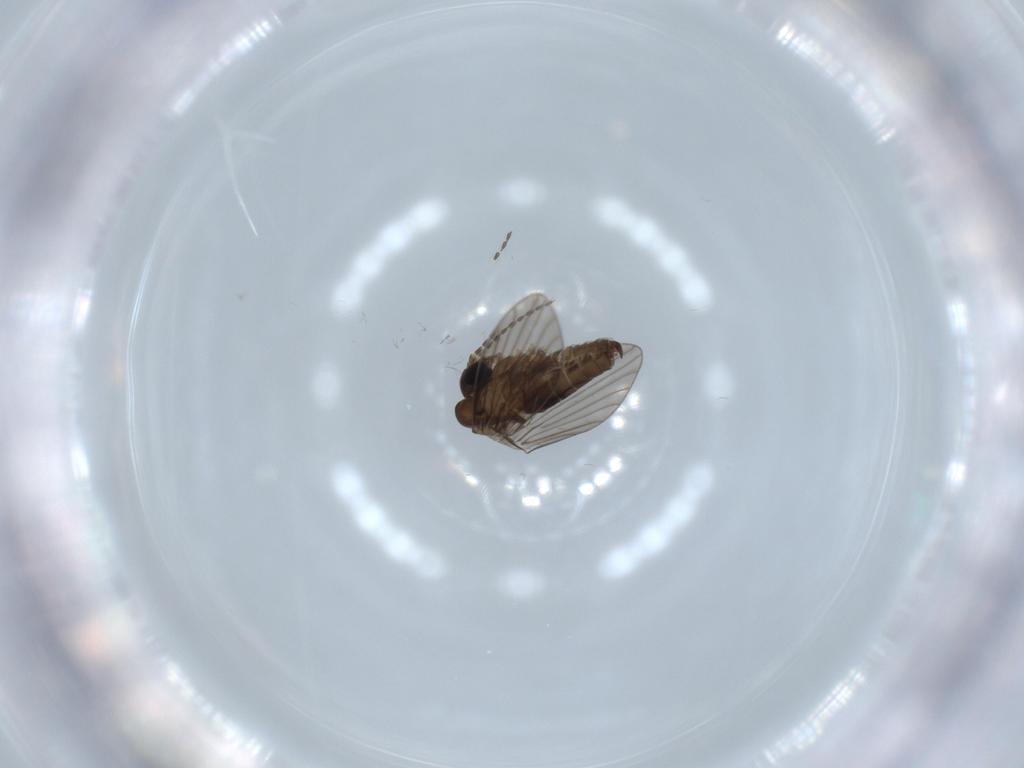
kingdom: Animalia
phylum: Arthropoda
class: Insecta
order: Diptera
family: Psychodidae
